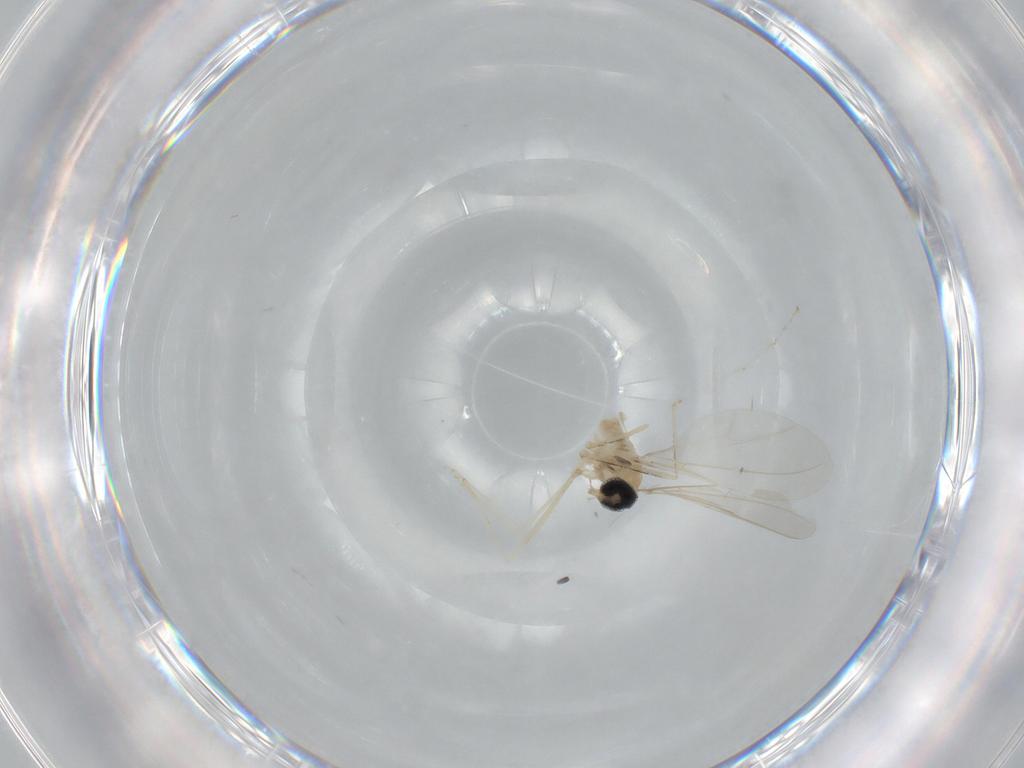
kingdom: Animalia
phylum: Arthropoda
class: Insecta
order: Diptera
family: Cecidomyiidae
